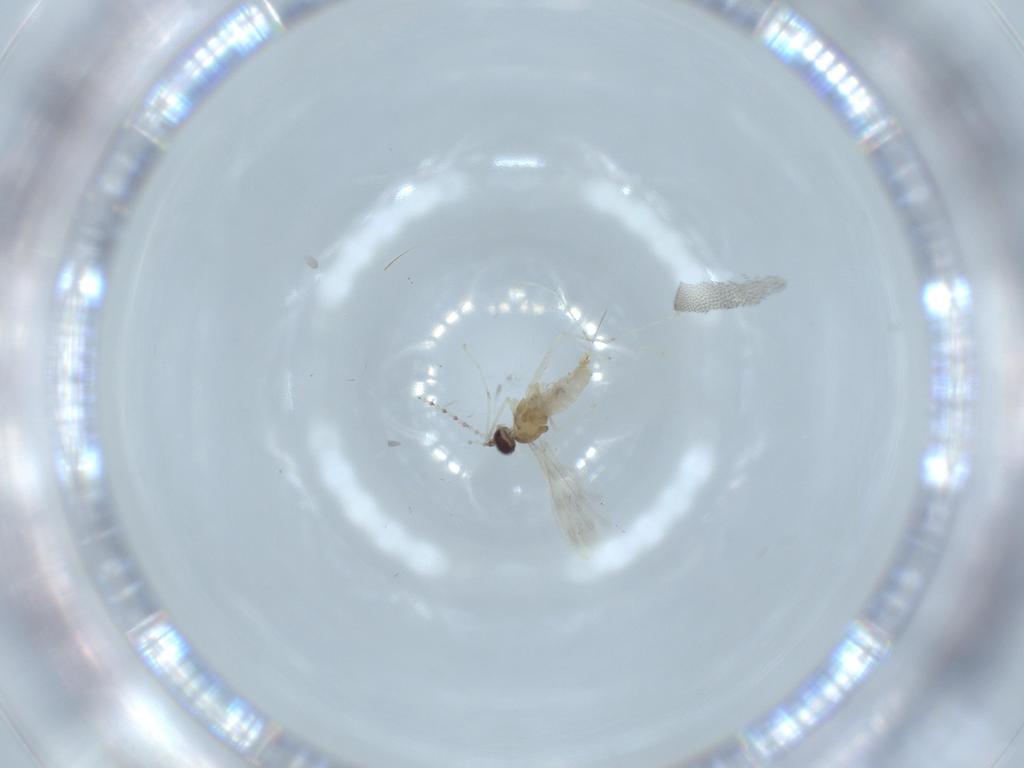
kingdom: Animalia
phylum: Arthropoda
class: Insecta
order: Diptera
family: Cecidomyiidae
